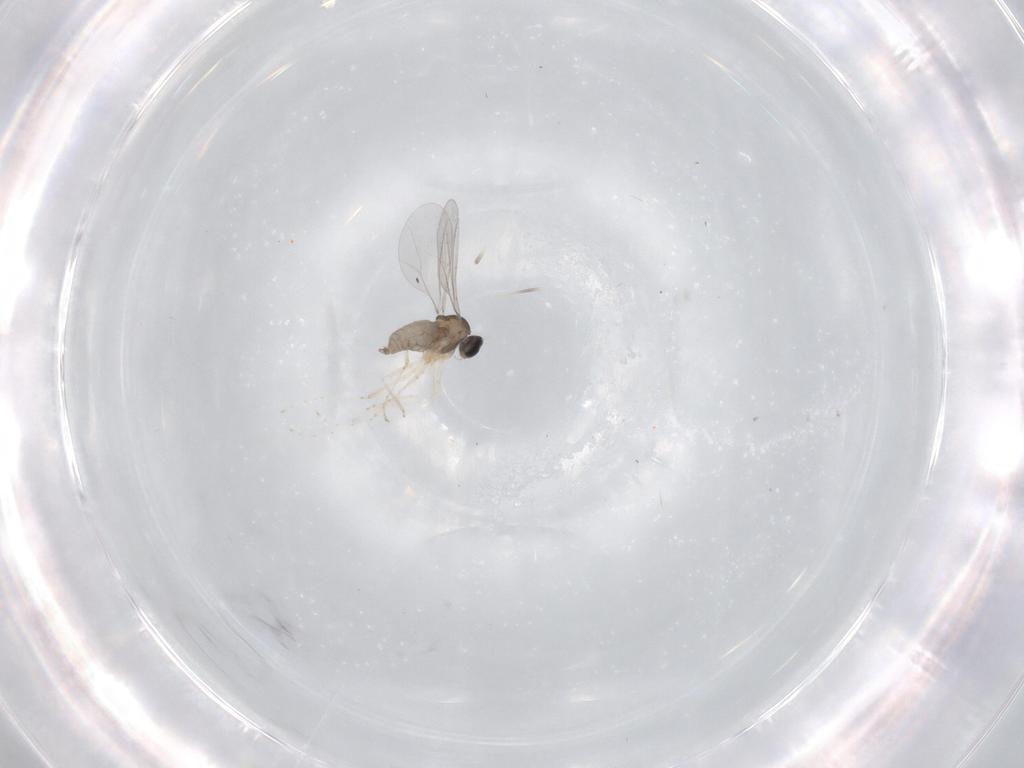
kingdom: Animalia
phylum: Arthropoda
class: Insecta
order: Diptera
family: Cecidomyiidae
